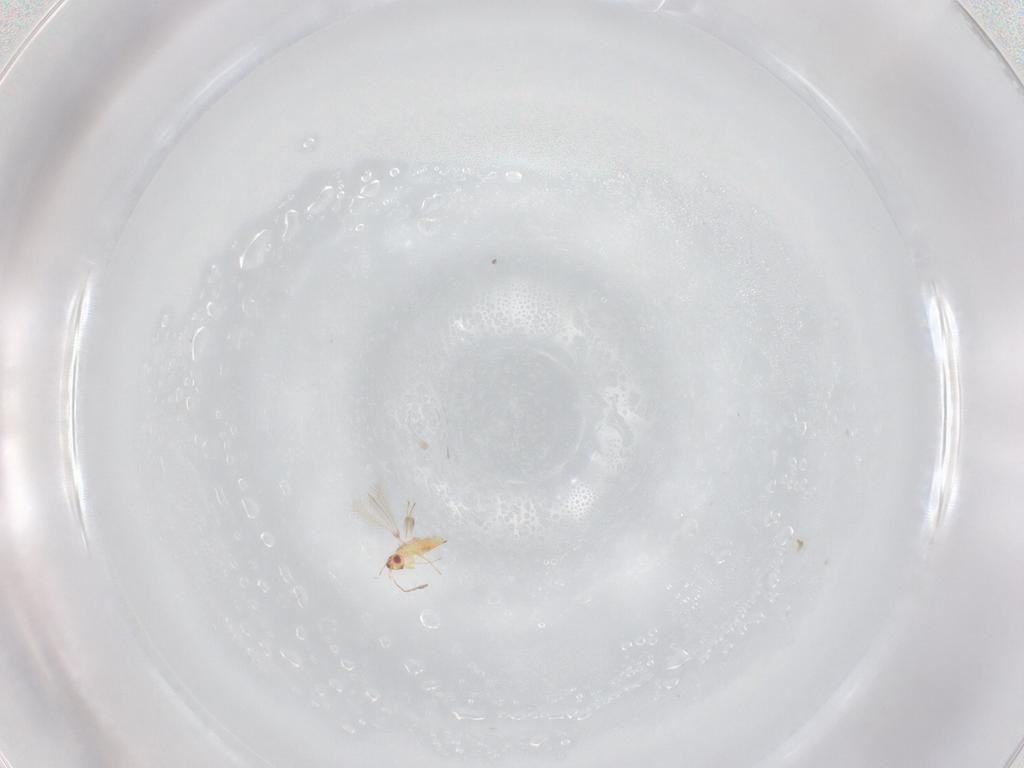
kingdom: Animalia
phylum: Arthropoda
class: Insecta
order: Hymenoptera
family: Mymaridae
